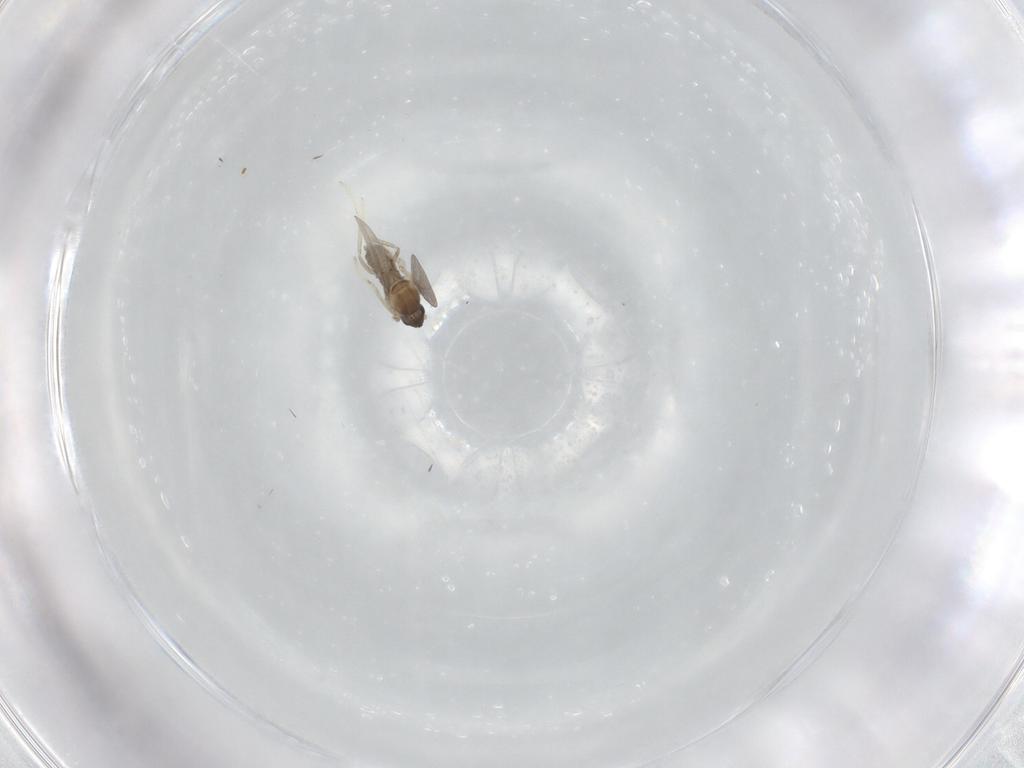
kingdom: Animalia
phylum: Arthropoda
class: Insecta
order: Diptera
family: Cecidomyiidae
